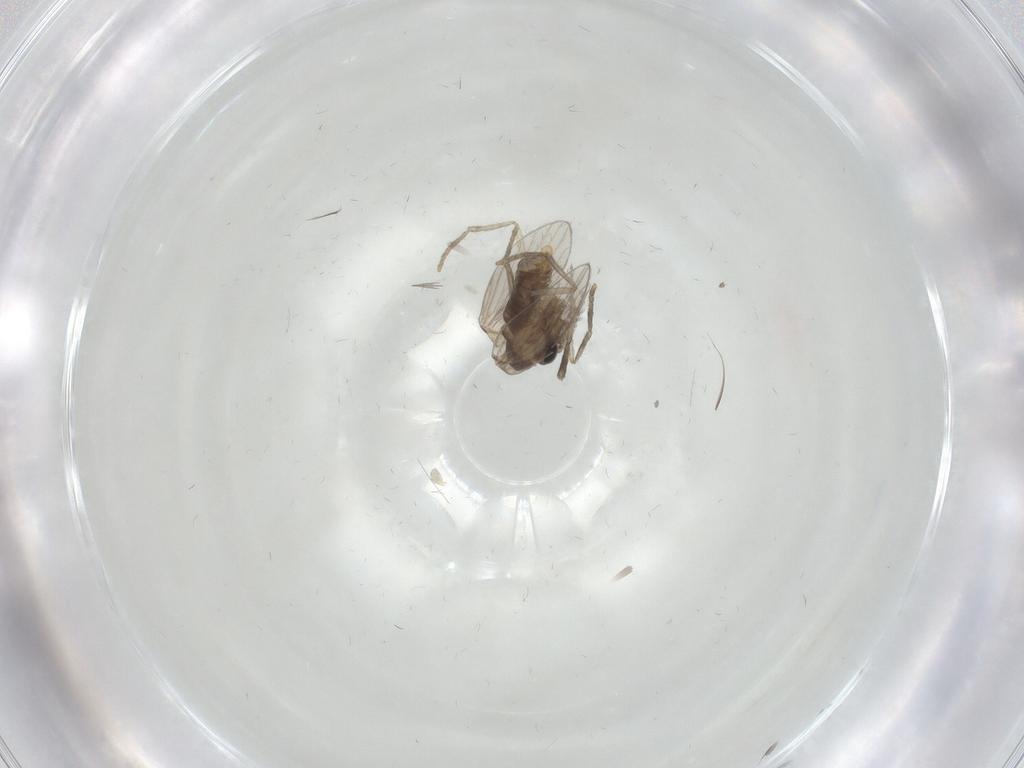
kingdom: Animalia
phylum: Arthropoda
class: Insecta
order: Diptera
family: Psychodidae
